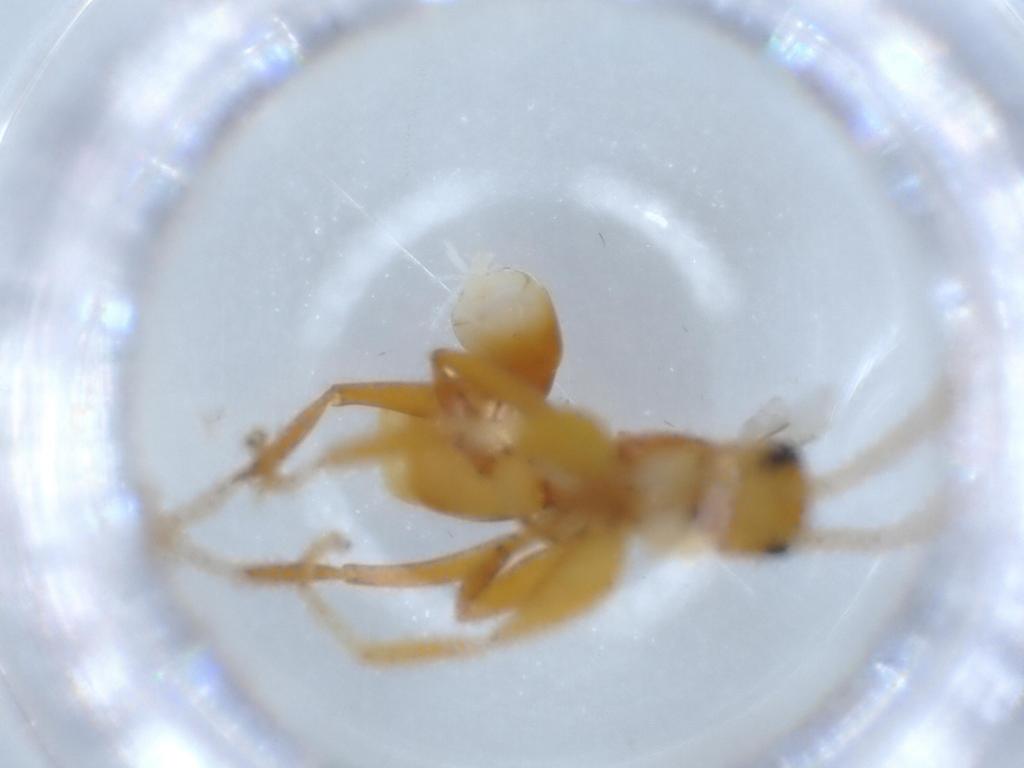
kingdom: Animalia
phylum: Arthropoda
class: Insecta
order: Hymenoptera
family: Rhopalosomatidae
